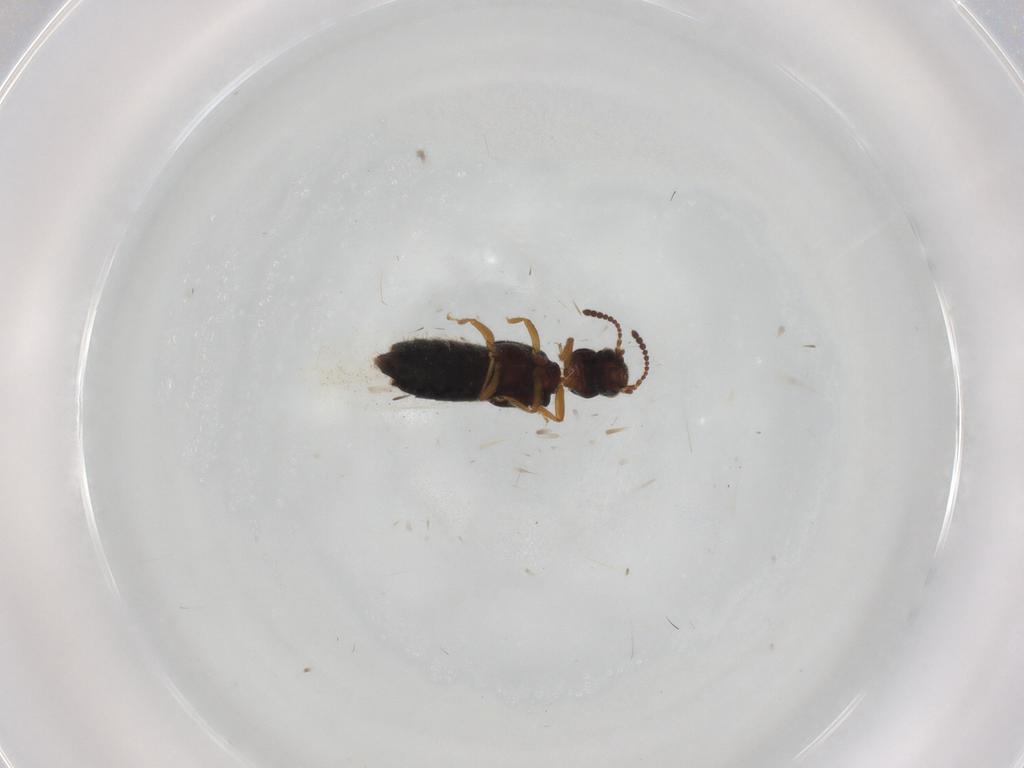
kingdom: Animalia
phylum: Arthropoda
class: Insecta
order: Coleoptera
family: Staphylinidae
